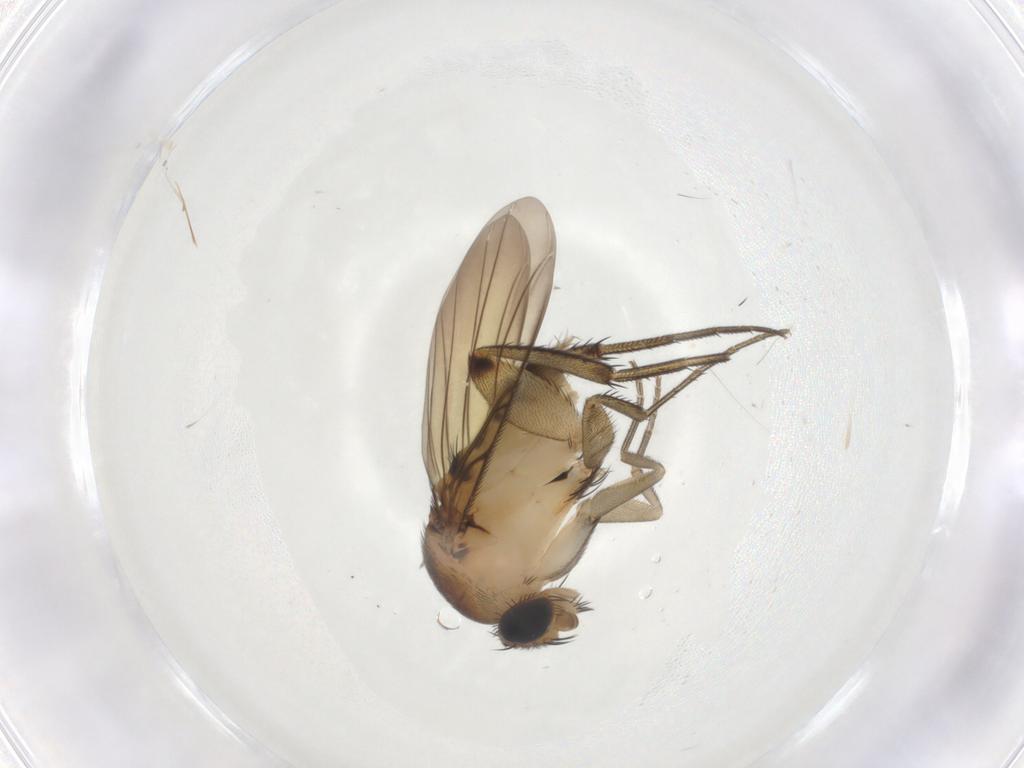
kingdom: Animalia
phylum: Arthropoda
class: Insecta
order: Diptera
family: Phoridae
